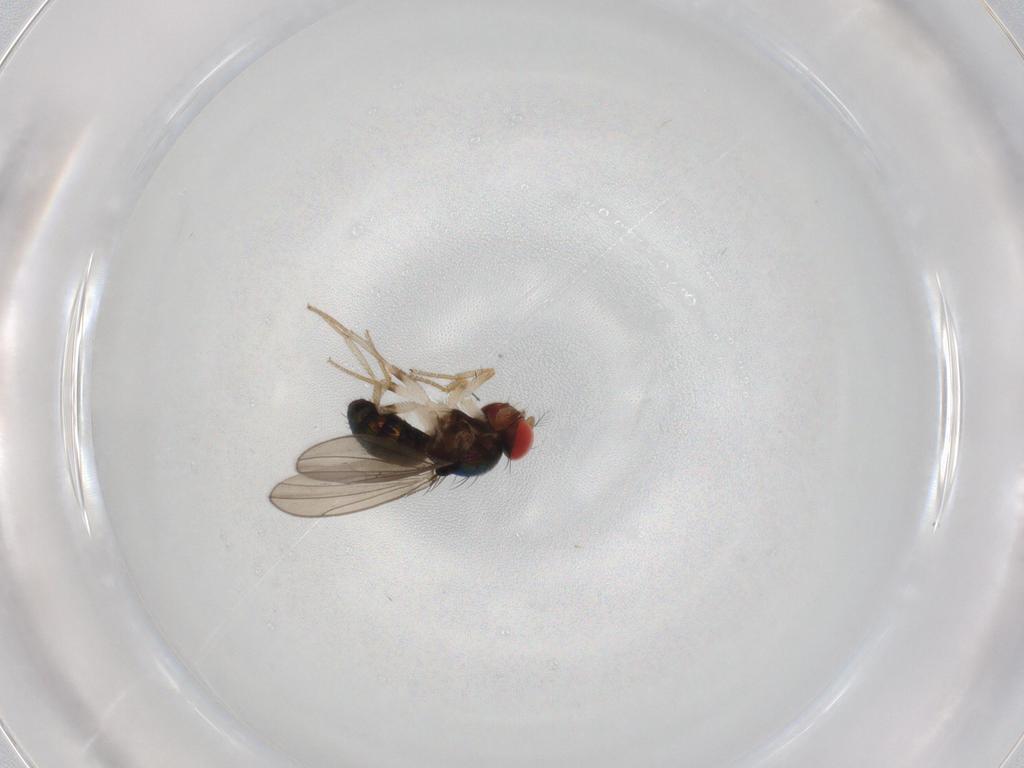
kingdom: Animalia
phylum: Arthropoda
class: Insecta
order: Diptera
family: Drosophilidae
